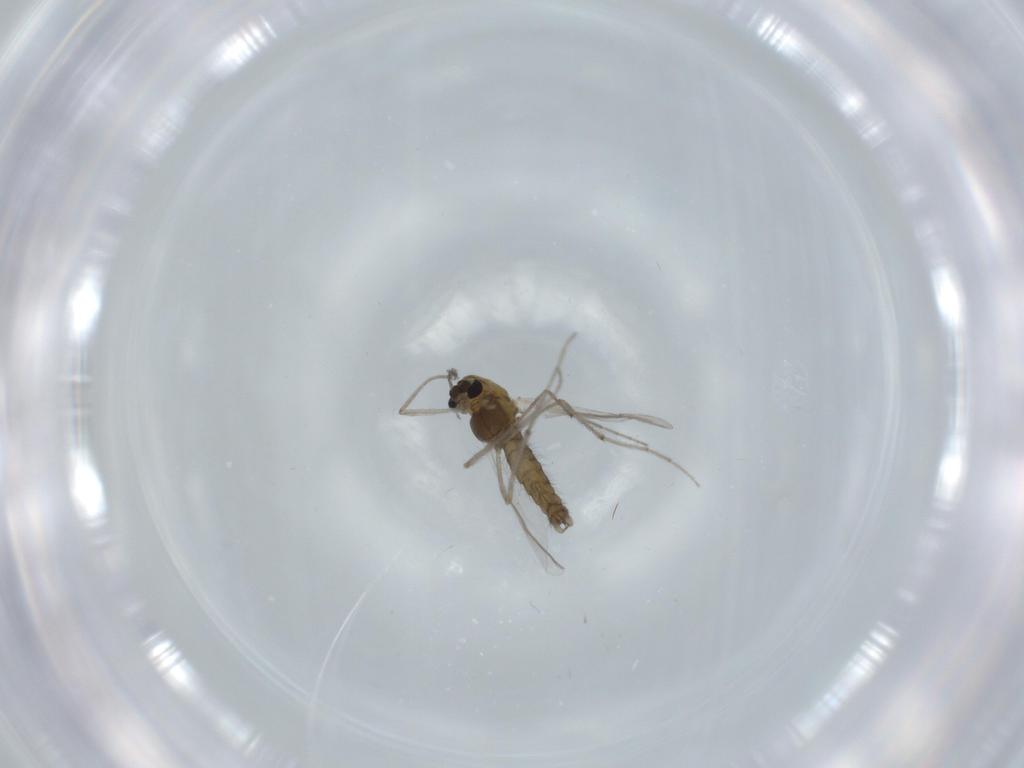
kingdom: Animalia
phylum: Arthropoda
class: Insecta
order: Diptera
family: Chironomidae
